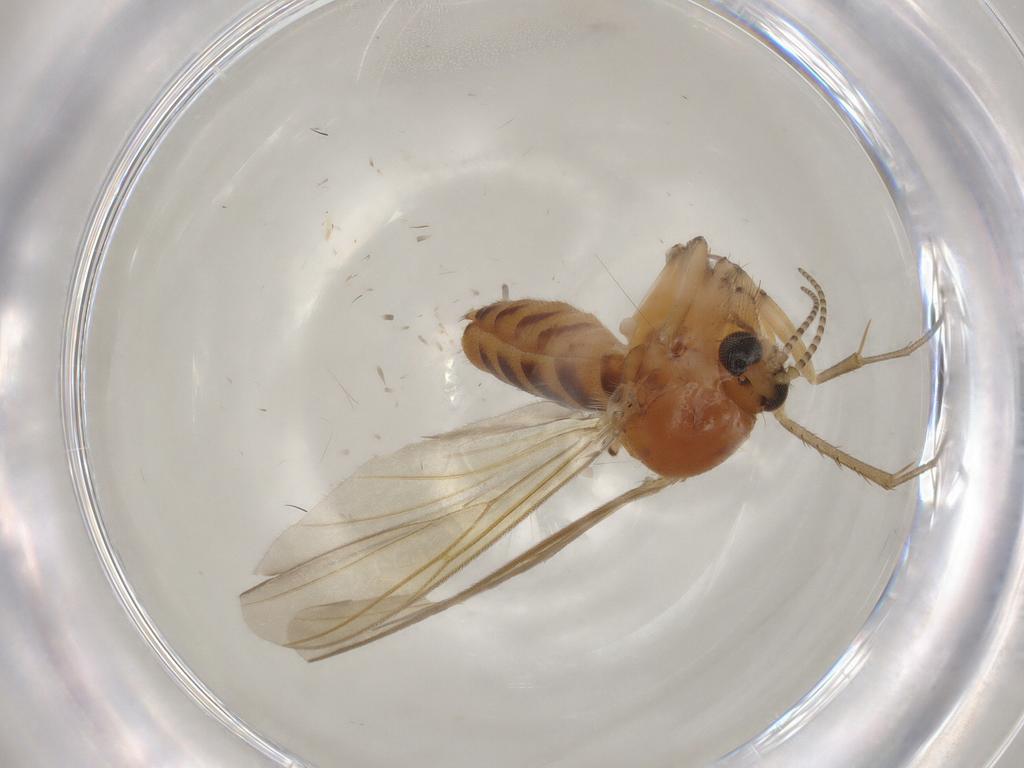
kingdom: Animalia
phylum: Arthropoda
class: Insecta
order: Diptera
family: Mycetophilidae
